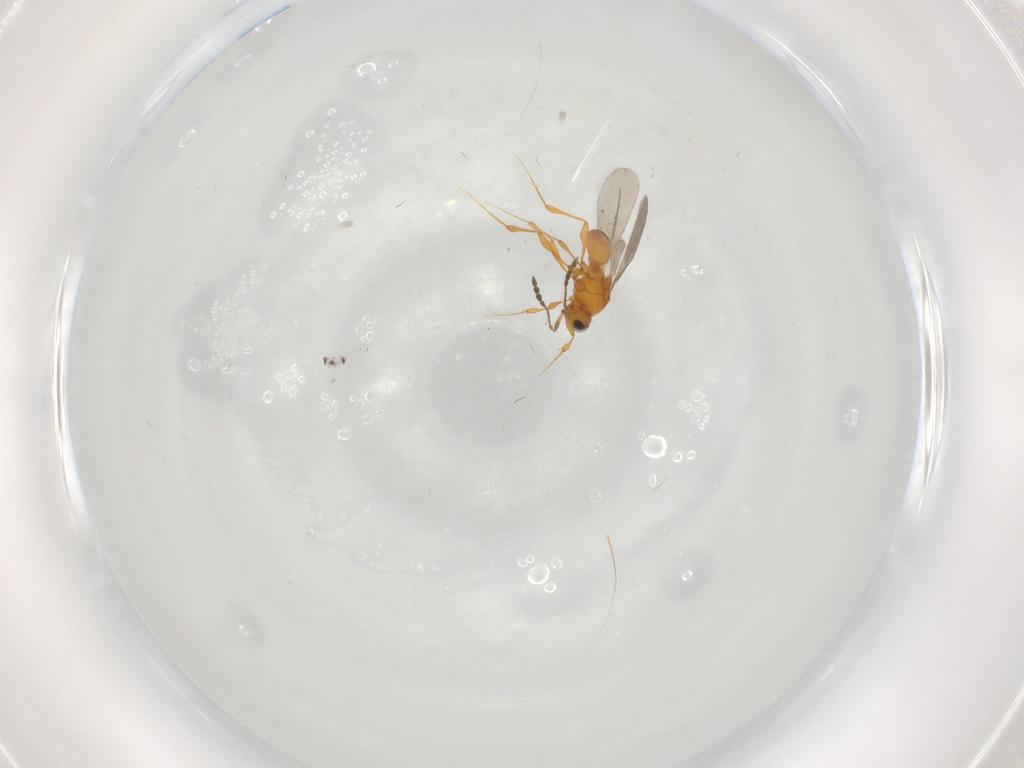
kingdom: Animalia
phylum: Arthropoda
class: Insecta
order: Hymenoptera
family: Platygastridae
